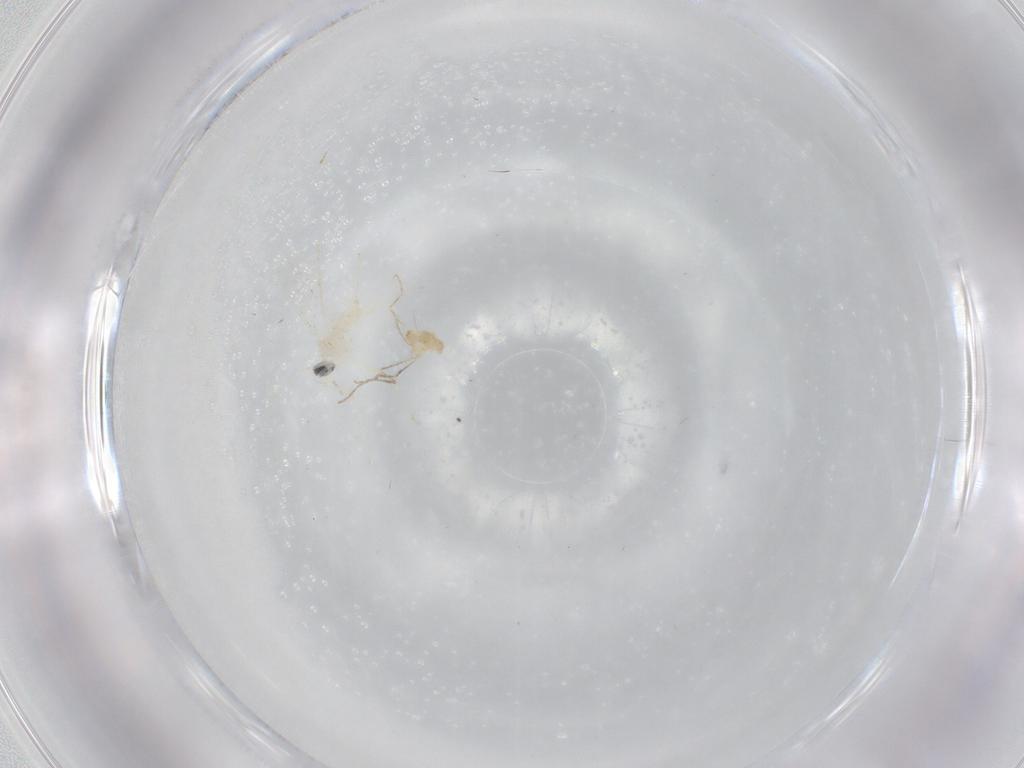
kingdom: Animalia
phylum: Arthropoda
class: Insecta
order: Diptera
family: Cecidomyiidae
